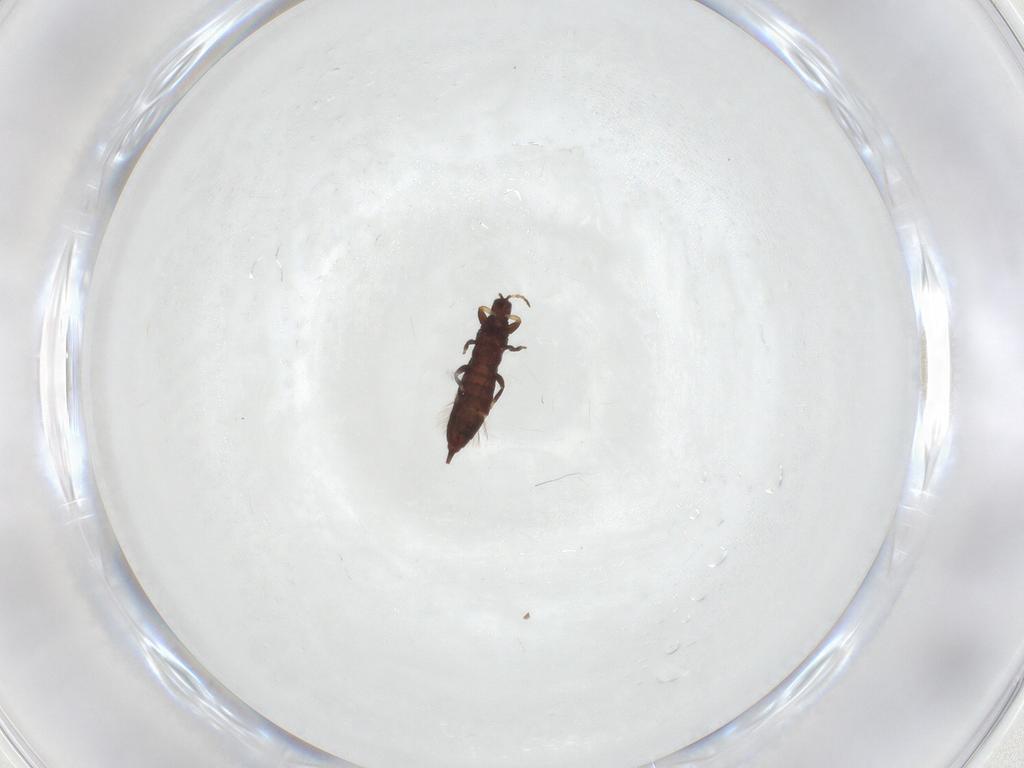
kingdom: Animalia
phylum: Arthropoda
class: Insecta
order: Thysanoptera
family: Phlaeothripidae
